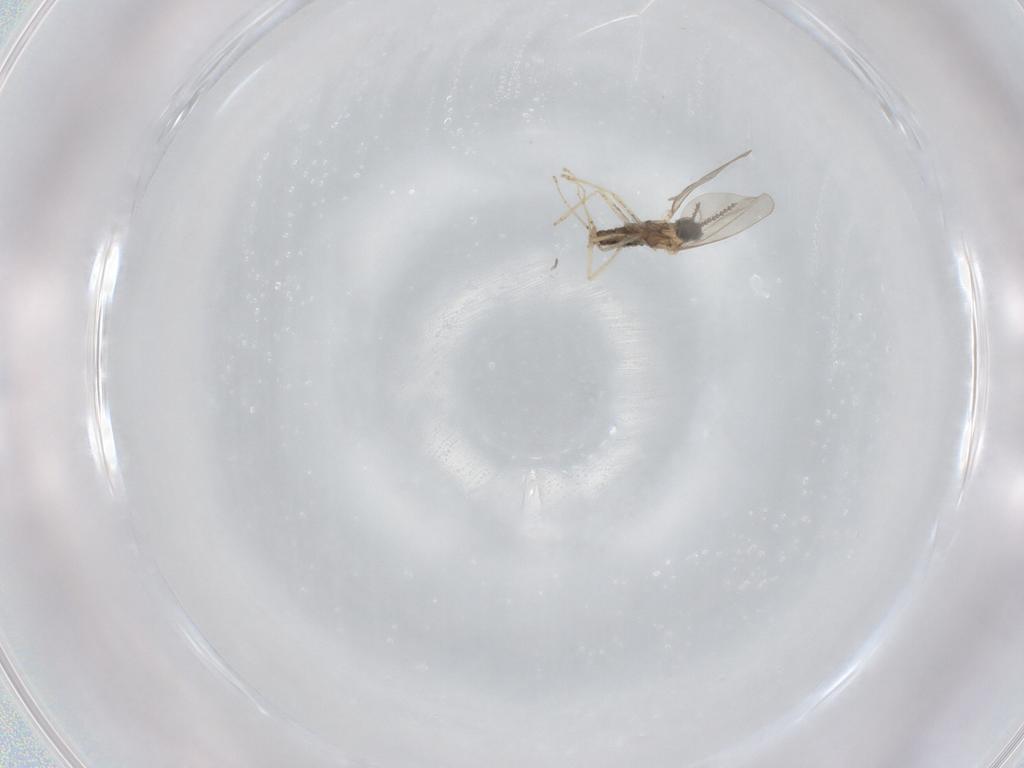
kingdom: Animalia
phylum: Arthropoda
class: Insecta
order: Diptera
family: Cecidomyiidae
